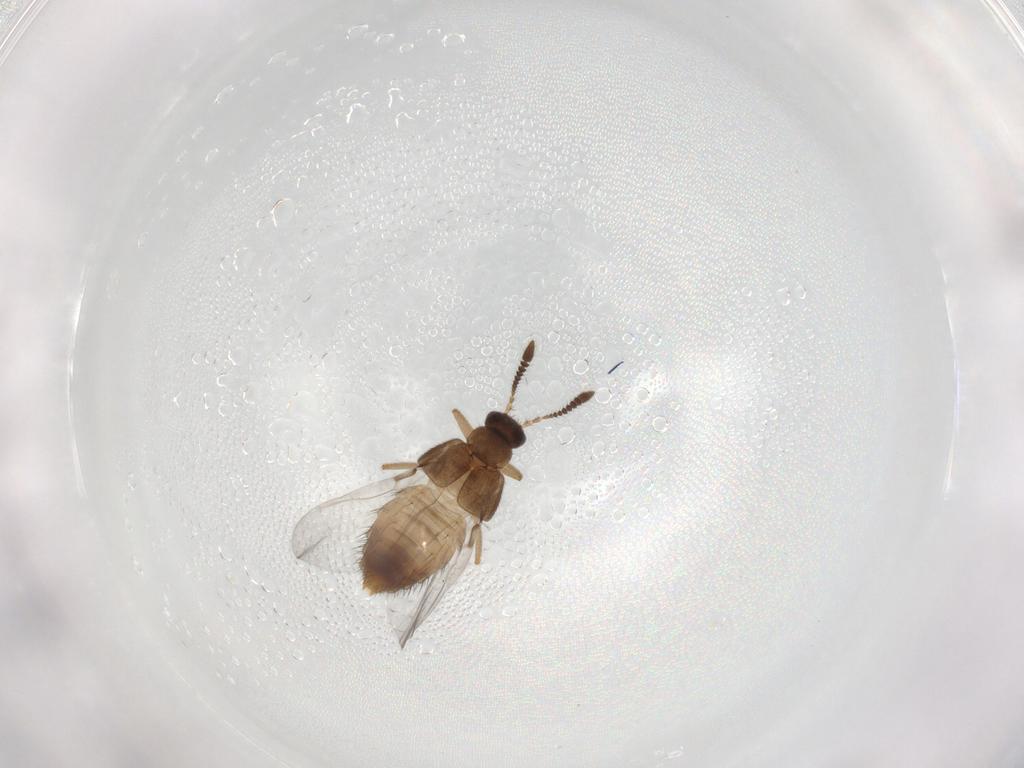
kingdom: Animalia
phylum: Arthropoda
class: Insecta
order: Coleoptera
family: Staphylinidae
